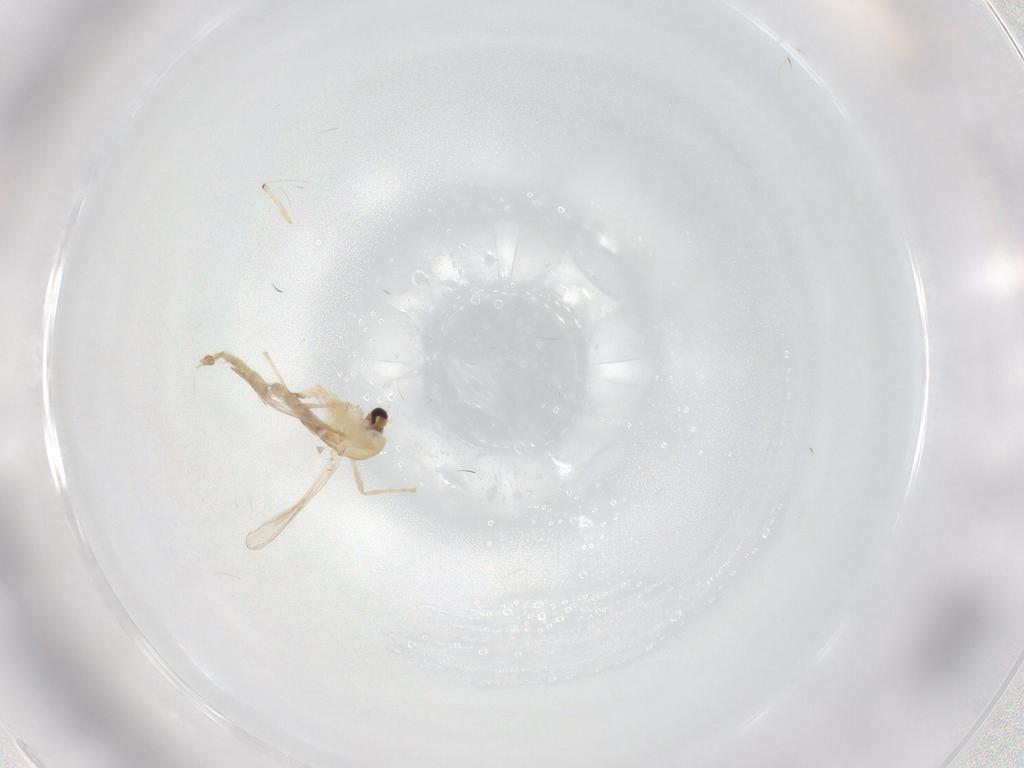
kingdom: Animalia
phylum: Arthropoda
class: Insecta
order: Diptera
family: Chironomidae
